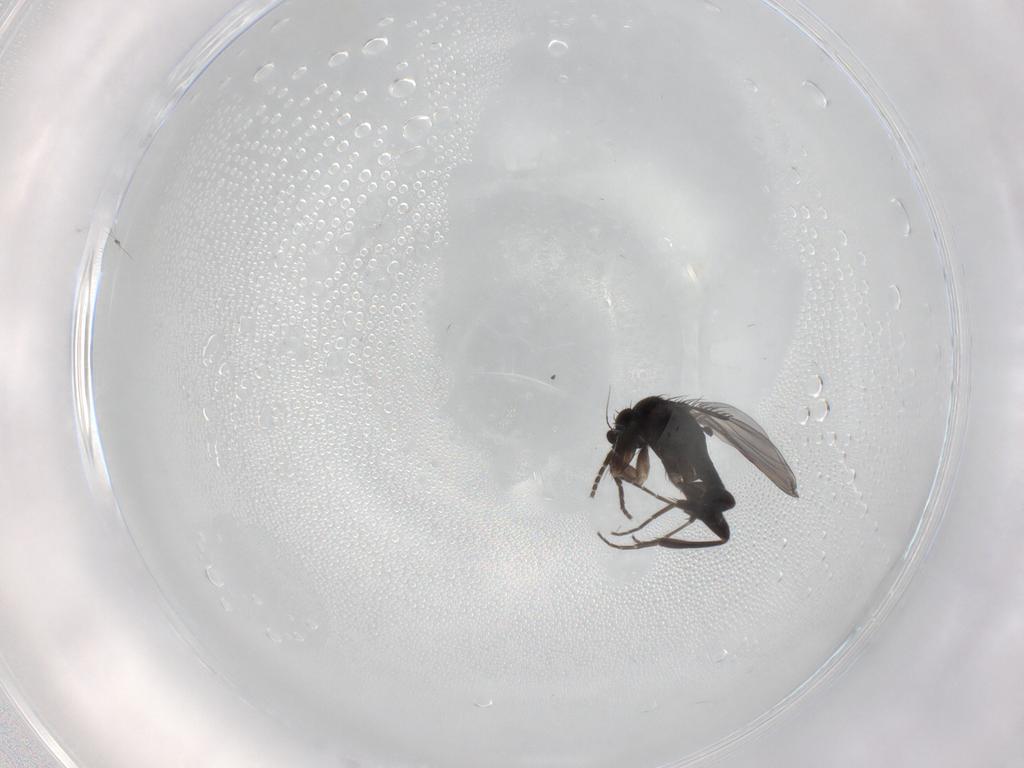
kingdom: Animalia
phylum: Arthropoda
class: Insecta
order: Diptera
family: Phoridae
